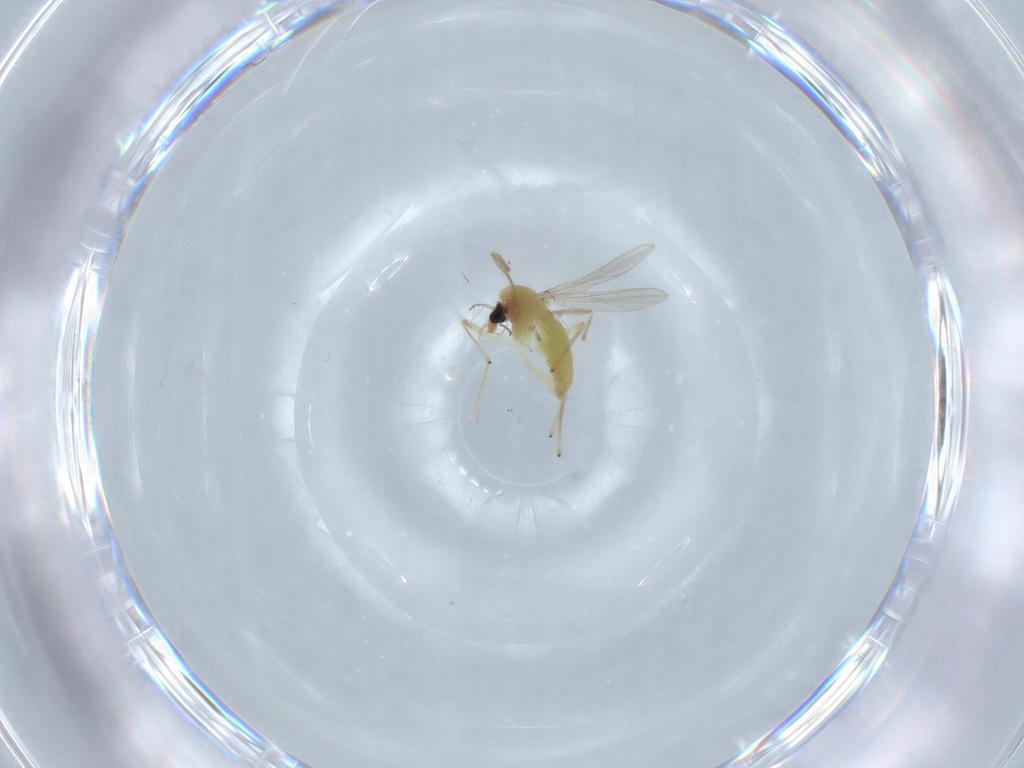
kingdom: Animalia
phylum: Arthropoda
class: Insecta
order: Diptera
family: Chironomidae
